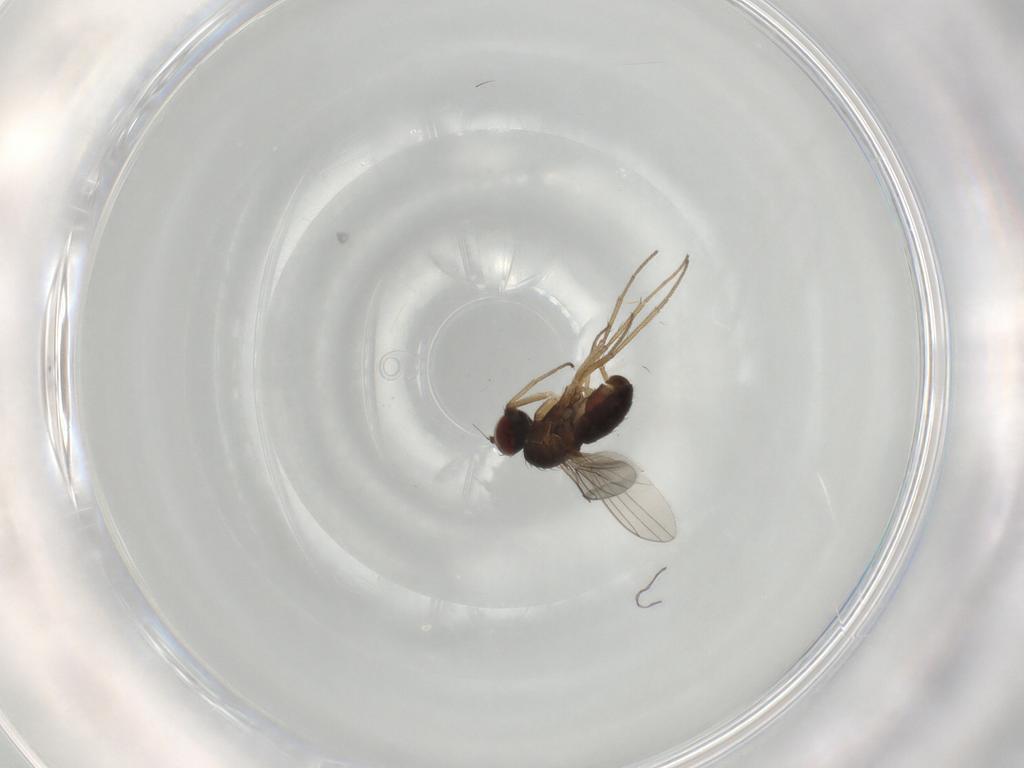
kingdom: Animalia
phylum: Arthropoda
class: Insecta
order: Diptera
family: Dolichopodidae
